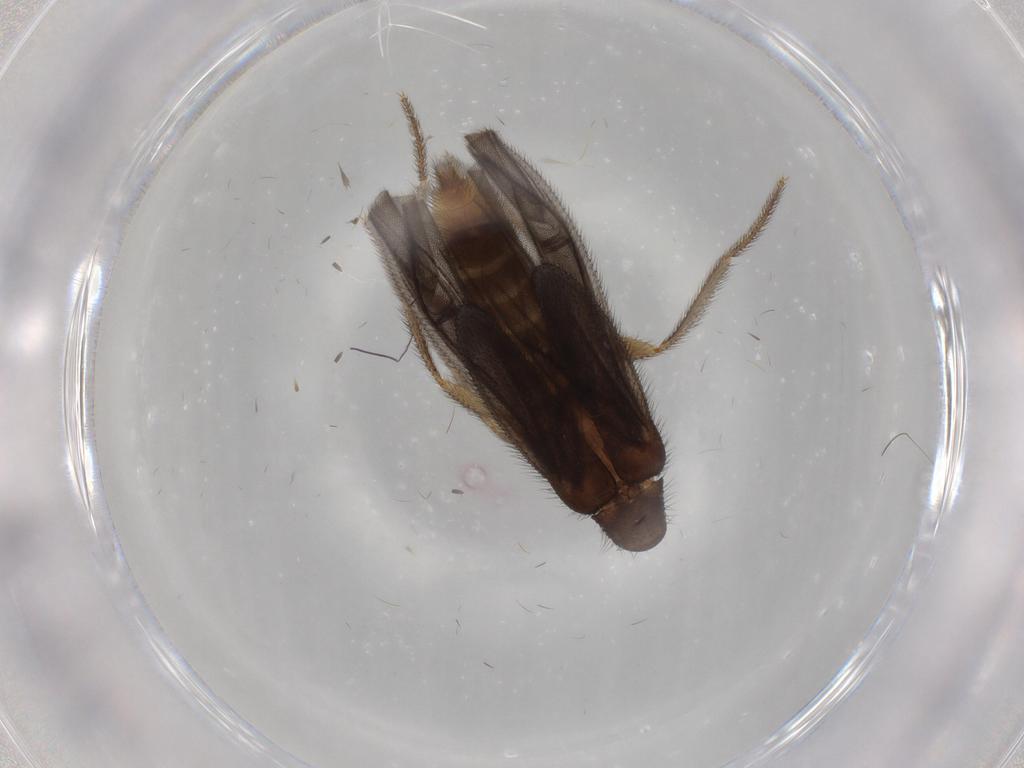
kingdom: Animalia
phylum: Arthropoda
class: Insecta
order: Coleoptera
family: Phengodidae
